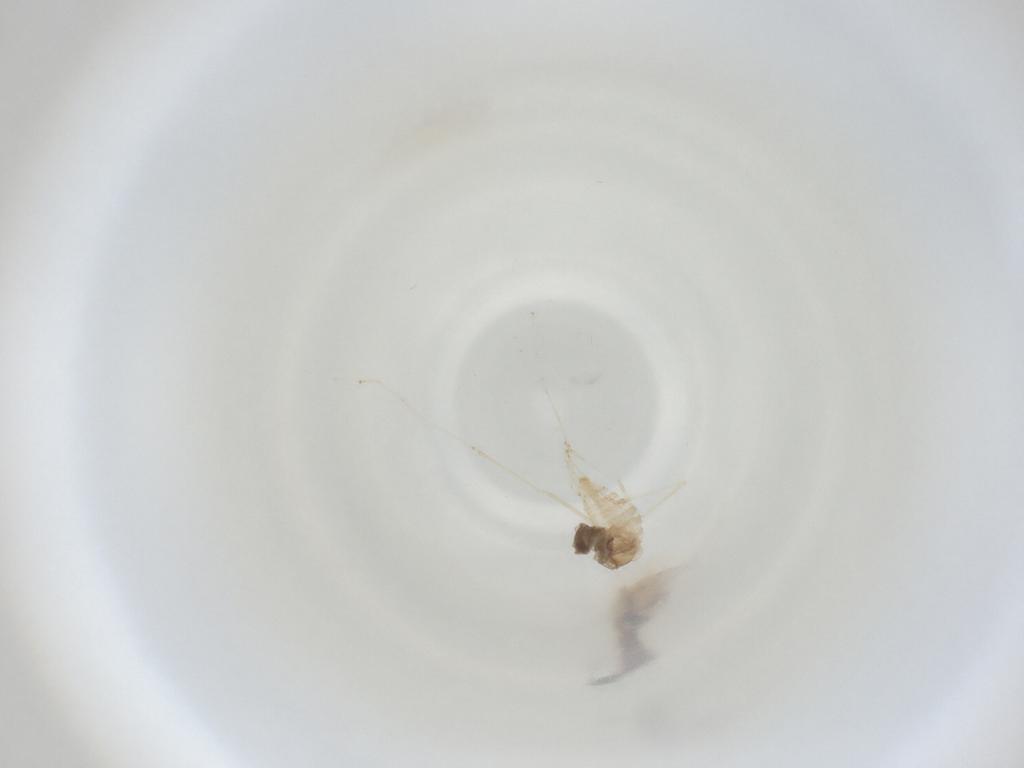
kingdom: Animalia
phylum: Arthropoda
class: Insecta
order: Diptera
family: Cecidomyiidae
